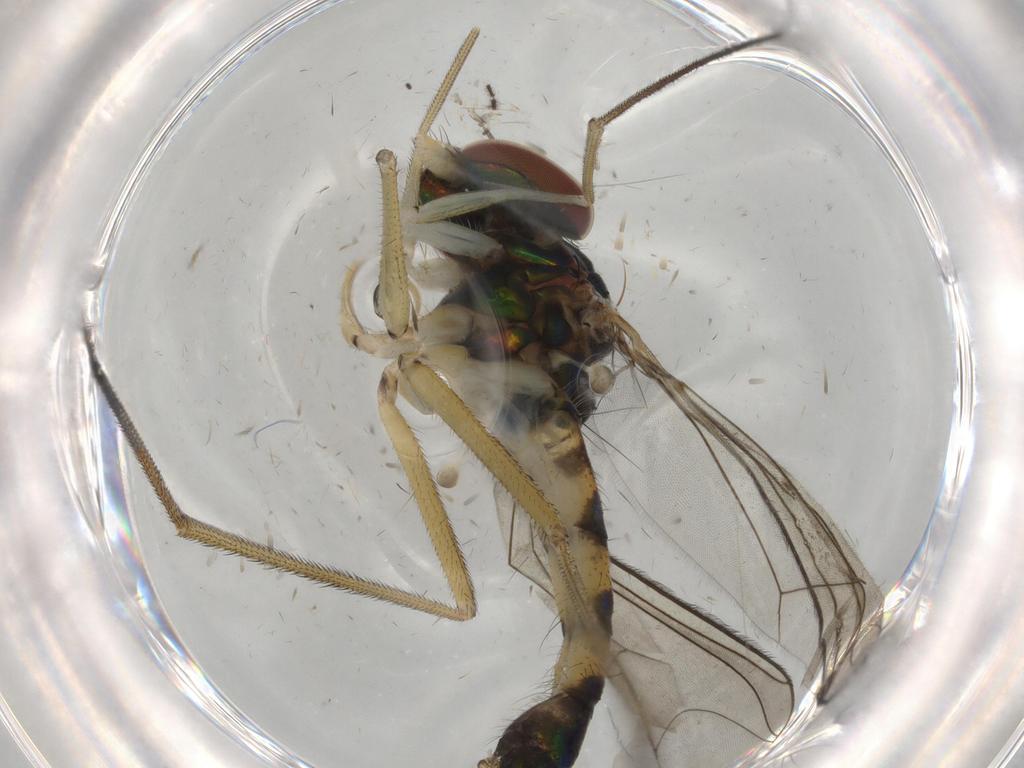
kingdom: Animalia
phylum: Arthropoda
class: Insecta
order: Diptera
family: Dolichopodidae
